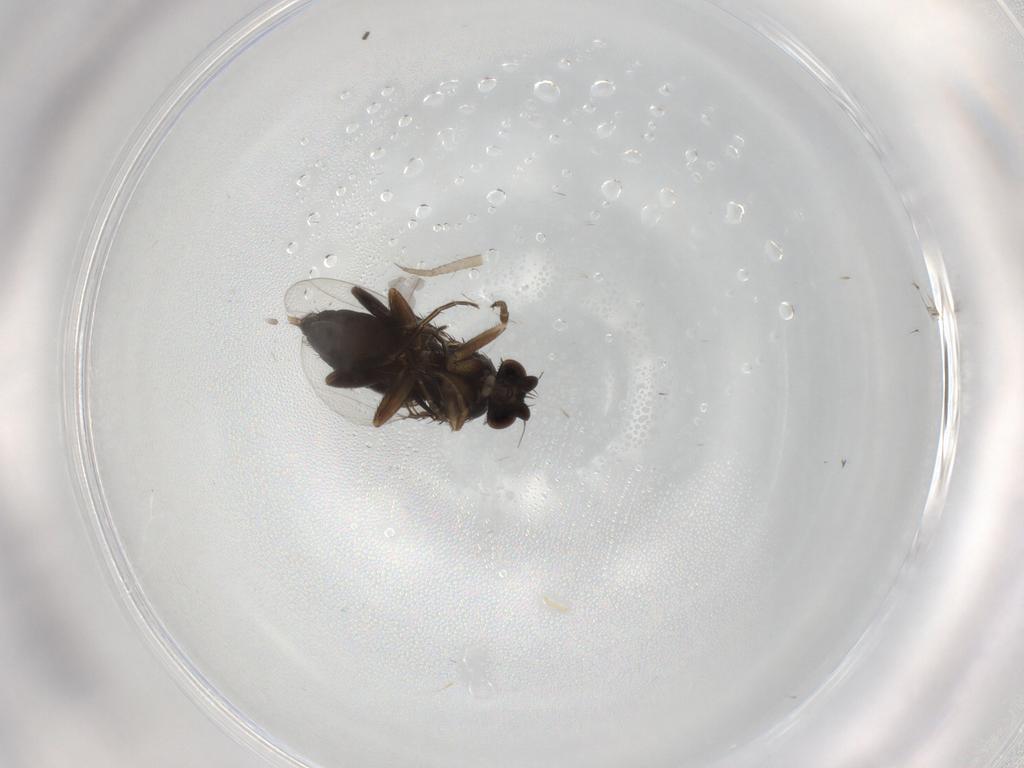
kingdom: Animalia
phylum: Arthropoda
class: Insecta
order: Diptera
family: Phoridae
